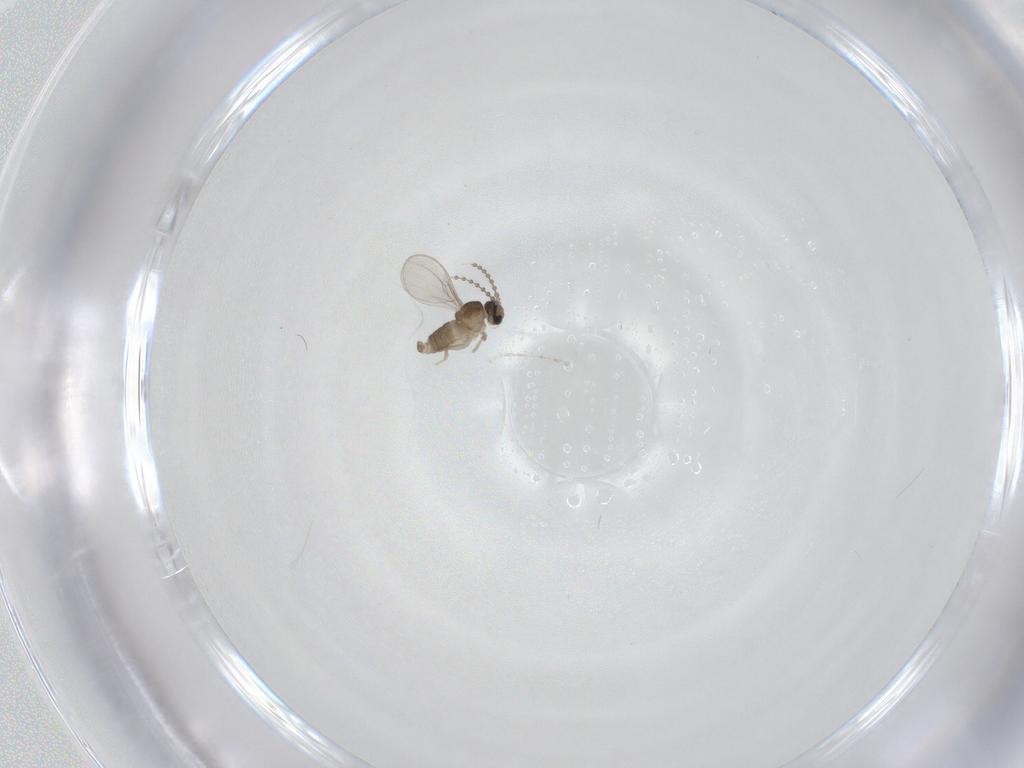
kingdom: Animalia
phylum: Arthropoda
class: Insecta
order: Diptera
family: Cecidomyiidae
